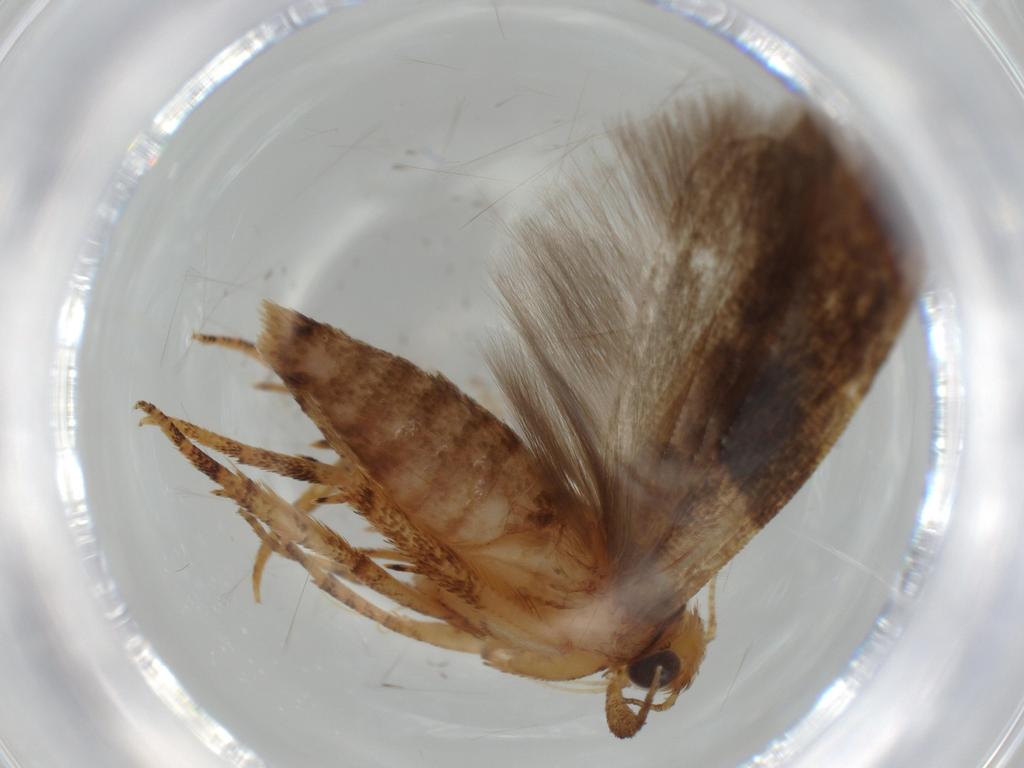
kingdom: Animalia
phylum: Arthropoda
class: Insecta
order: Lepidoptera
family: Gracillariidae
